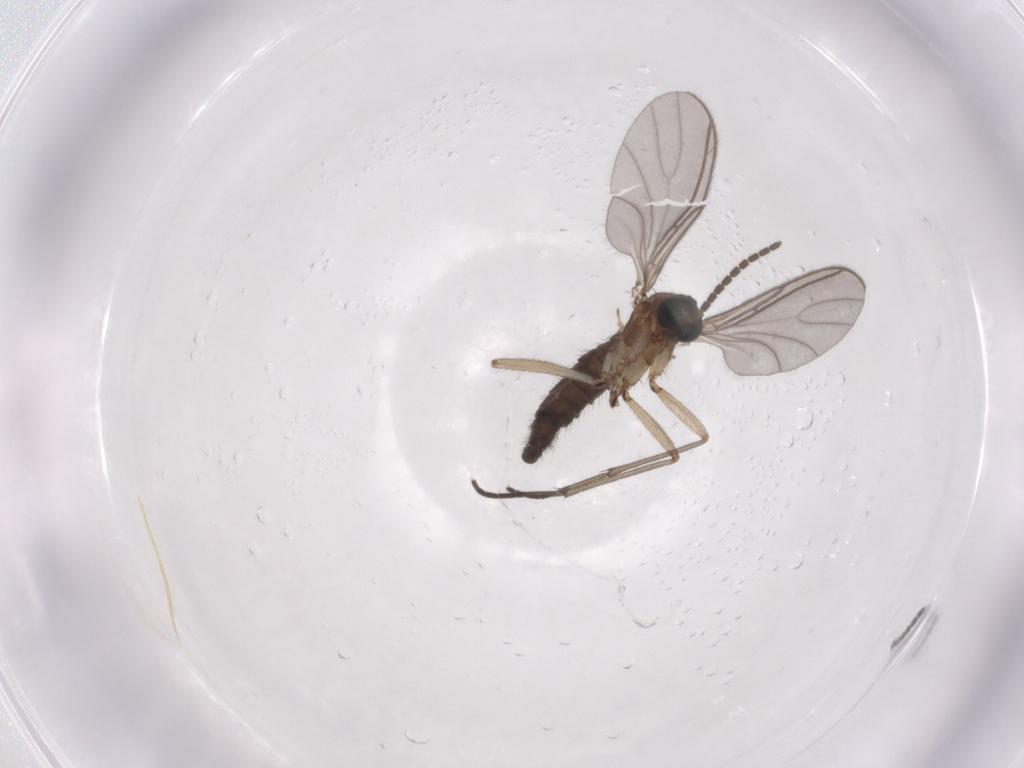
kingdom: Animalia
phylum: Arthropoda
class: Insecta
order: Diptera
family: Sciaridae
